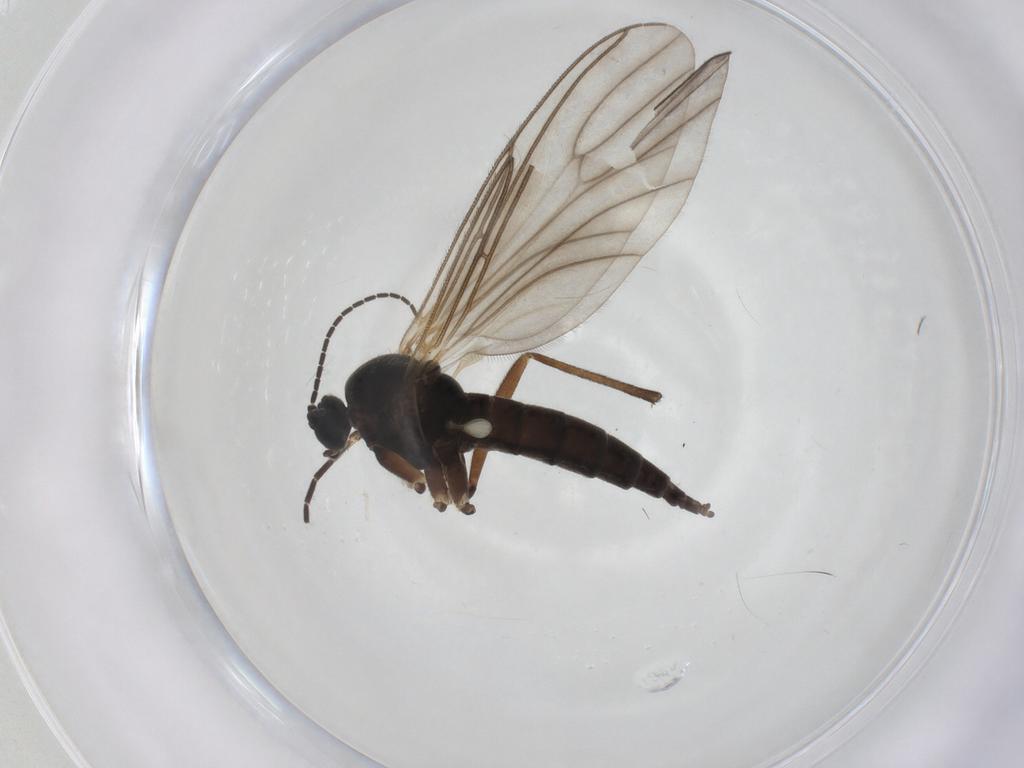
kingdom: Animalia
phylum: Arthropoda
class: Insecta
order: Diptera
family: Sciaridae
